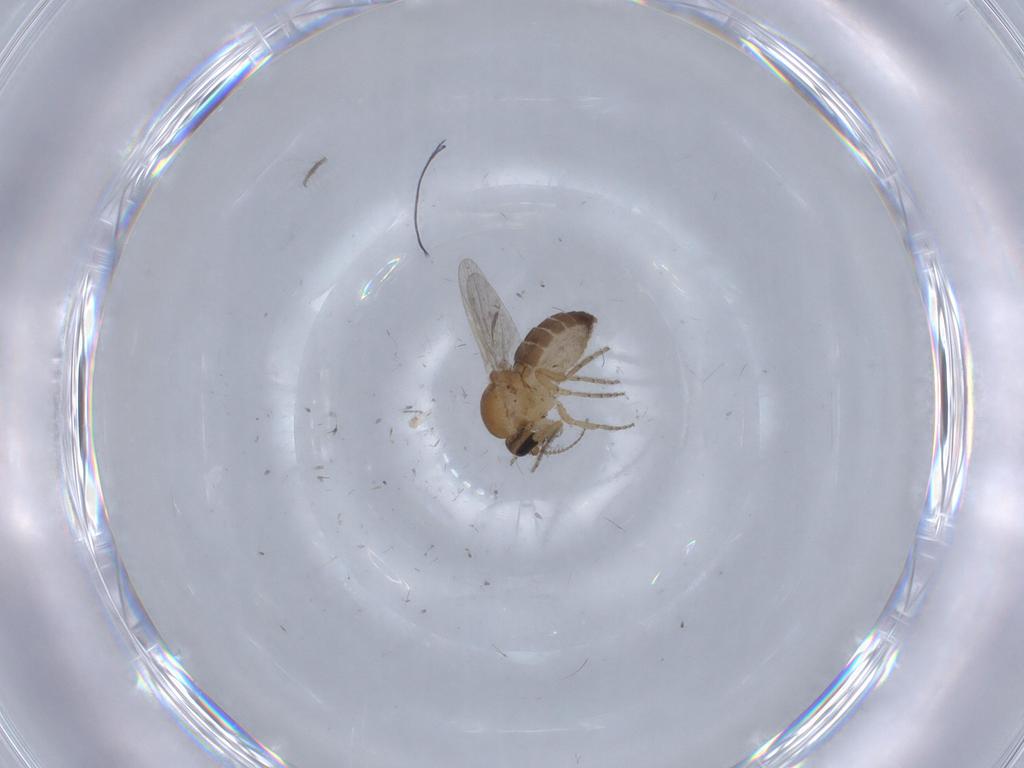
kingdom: Animalia
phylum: Arthropoda
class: Insecta
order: Diptera
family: Ceratopogonidae
